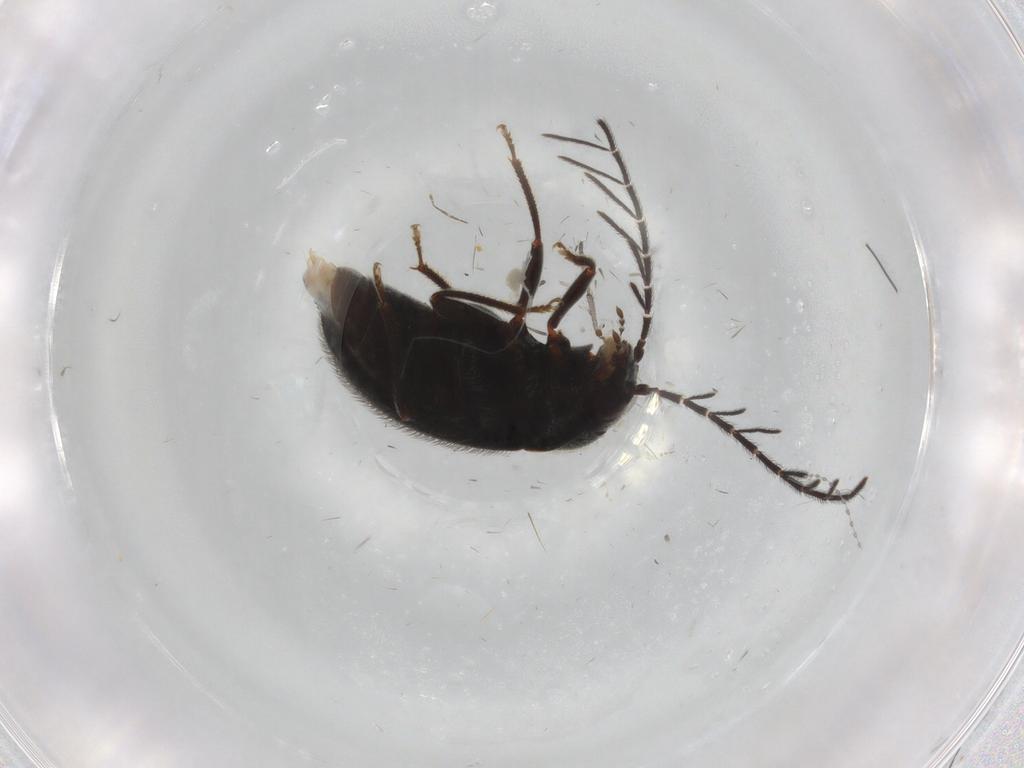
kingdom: Animalia
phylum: Arthropoda
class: Insecta
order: Coleoptera
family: Ptilodactylidae
